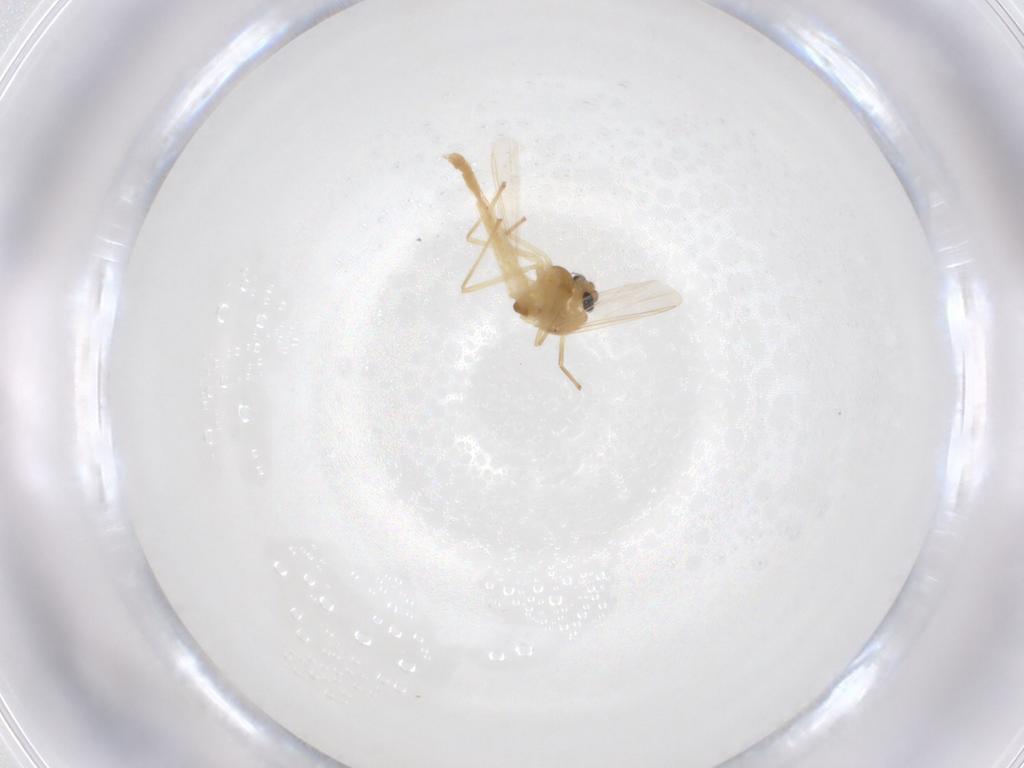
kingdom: Animalia
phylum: Arthropoda
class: Insecta
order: Diptera
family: Chironomidae
